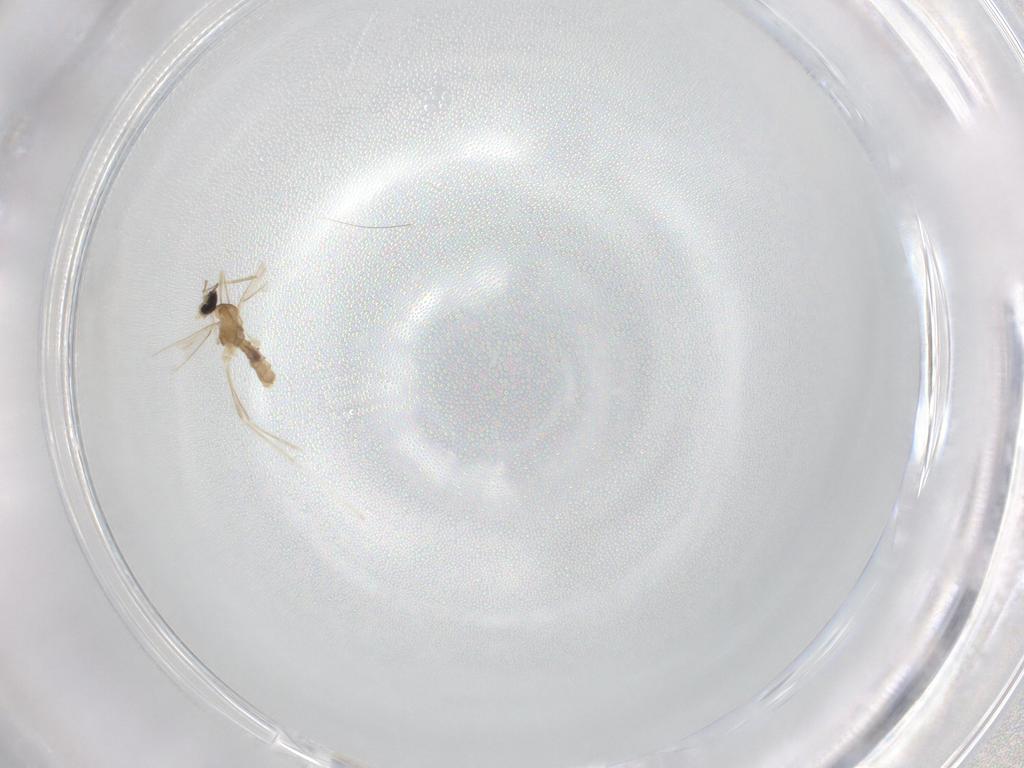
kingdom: Animalia
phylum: Arthropoda
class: Insecta
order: Diptera
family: Cecidomyiidae
